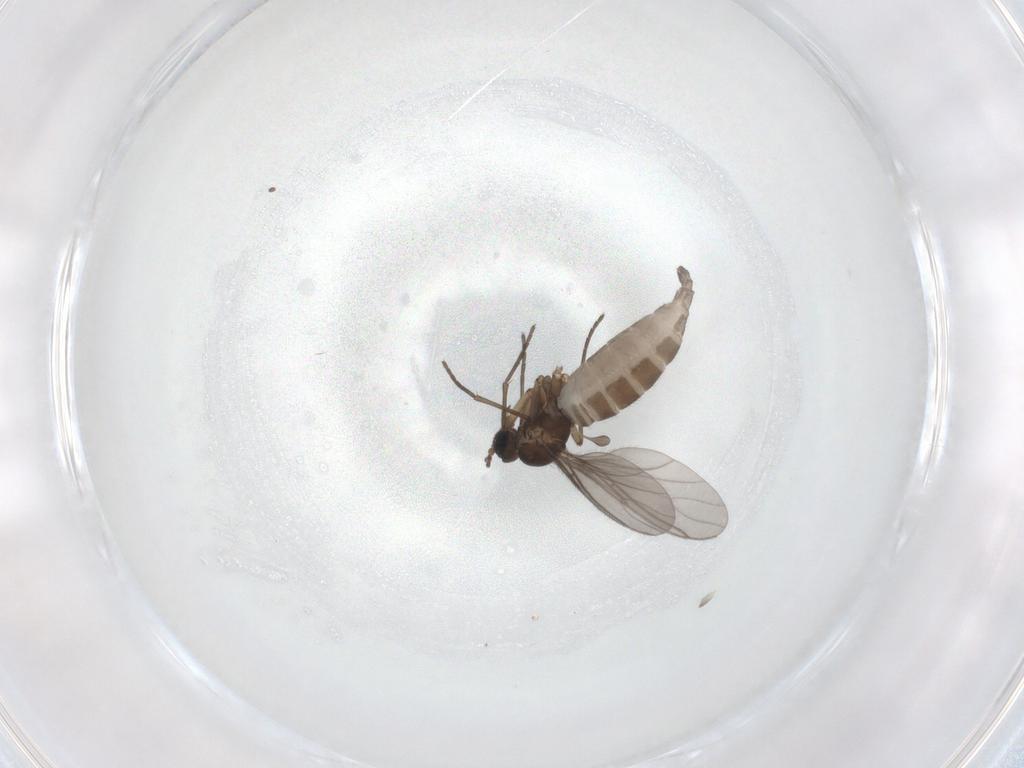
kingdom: Animalia
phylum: Arthropoda
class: Insecta
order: Diptera
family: Sciaridae
